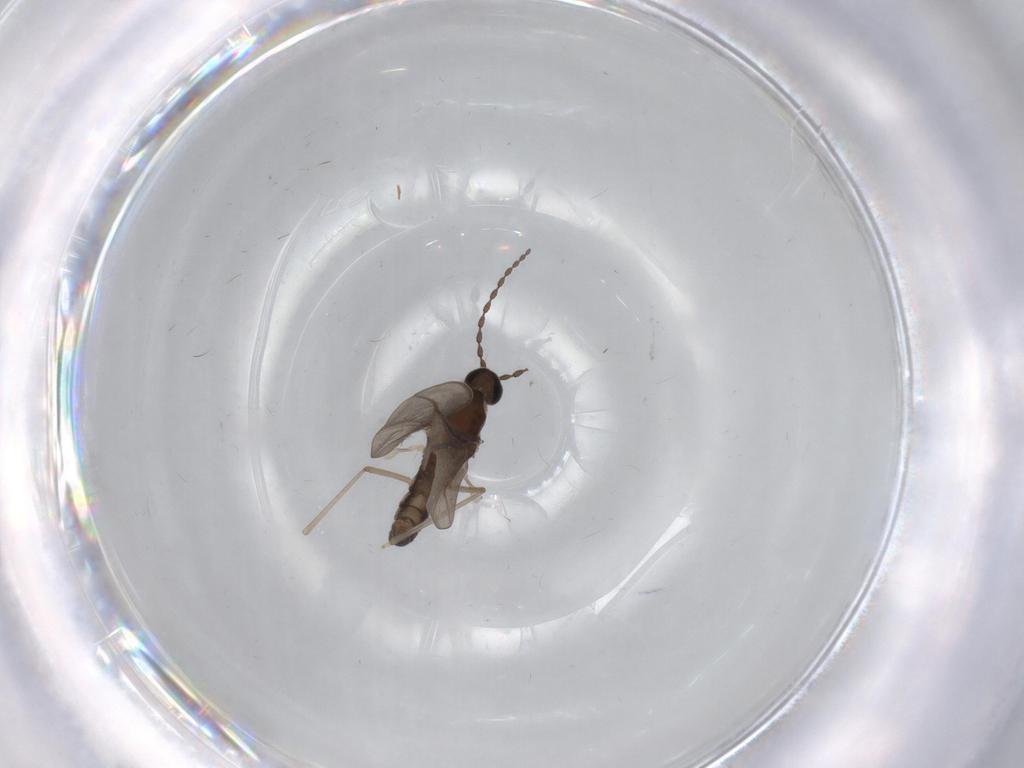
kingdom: Animalia
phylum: Arthropoda
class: Insecta
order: Diptera
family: Cecidomyiidae
